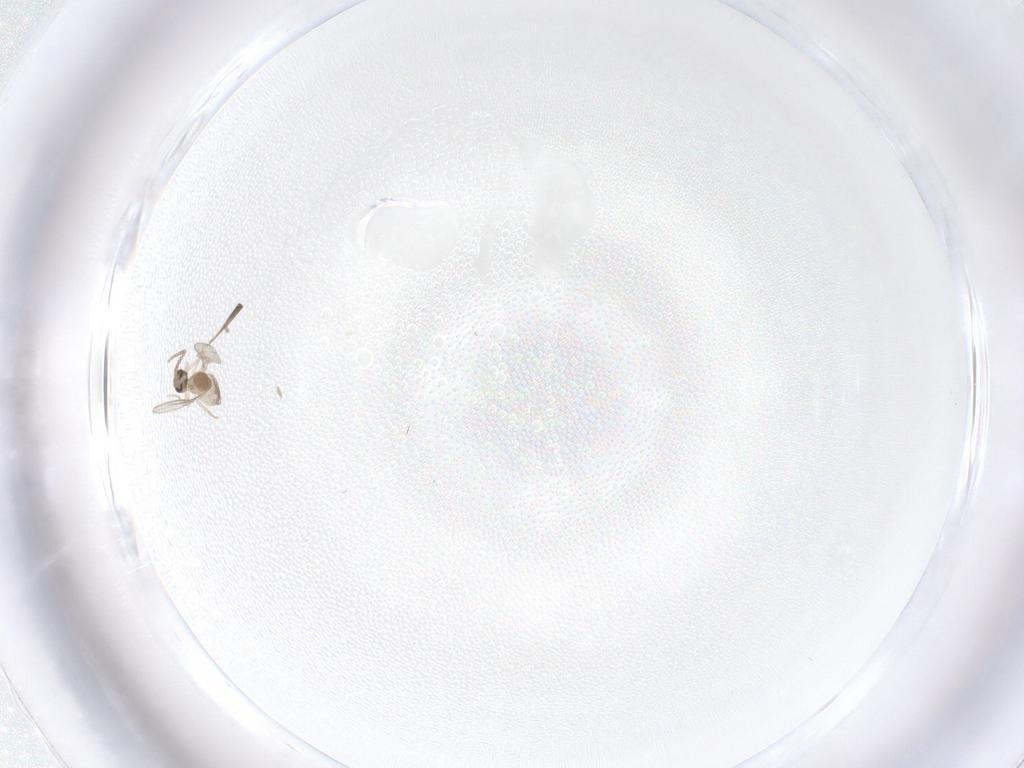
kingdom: Animalia
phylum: Arthropoda
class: Insecta
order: Diptera
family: Cecidomyiidae
